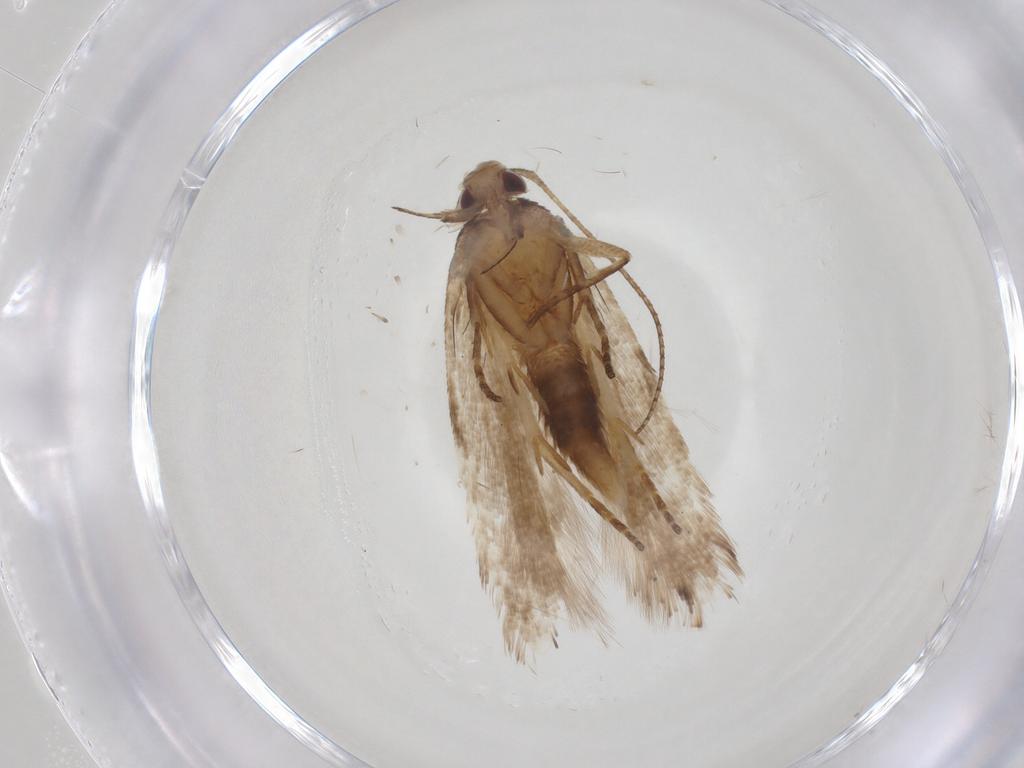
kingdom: Animalia
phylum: Arthropoda
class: Insecta
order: Lepidoptera
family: Gelechiidae
